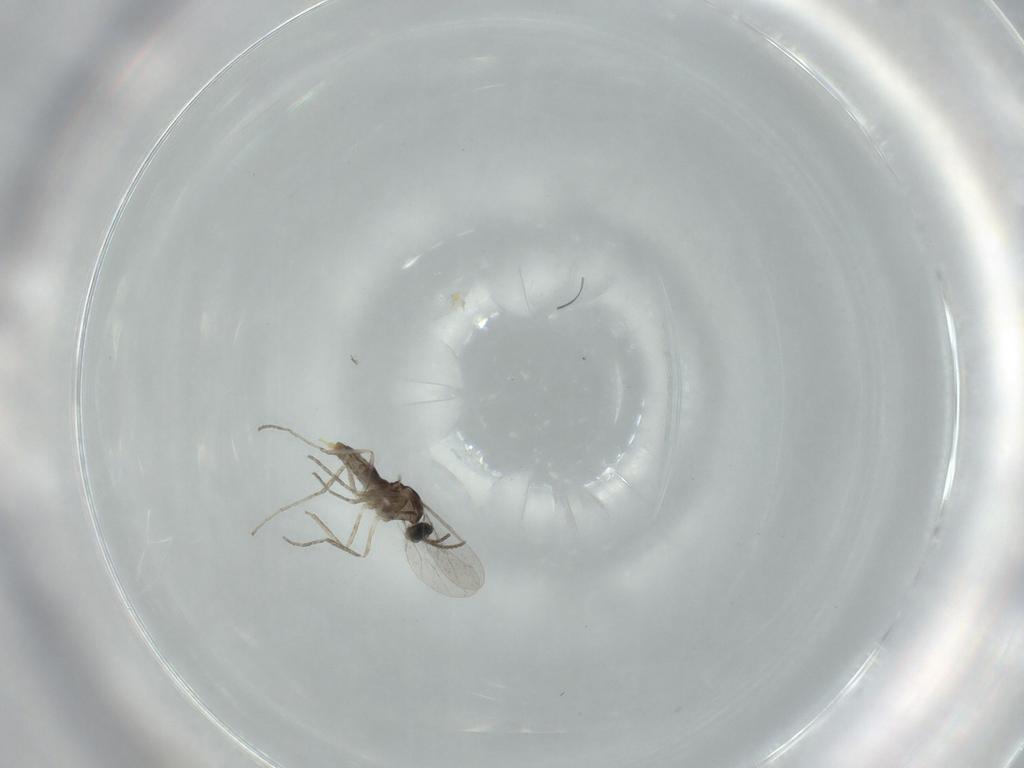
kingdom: Animalia
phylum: Arthropoda
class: Insecta
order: Diptera
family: Cecidomyiidae
